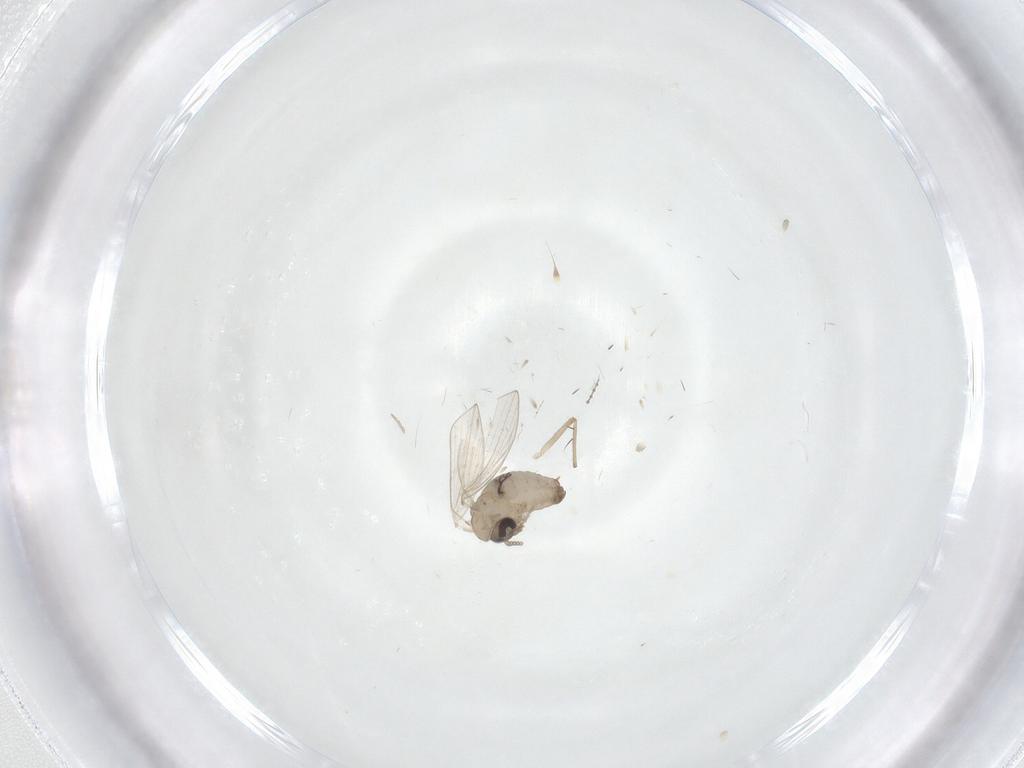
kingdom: Animalia
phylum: Arthropoda
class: Insecta
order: Diptera
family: Psychodidae
